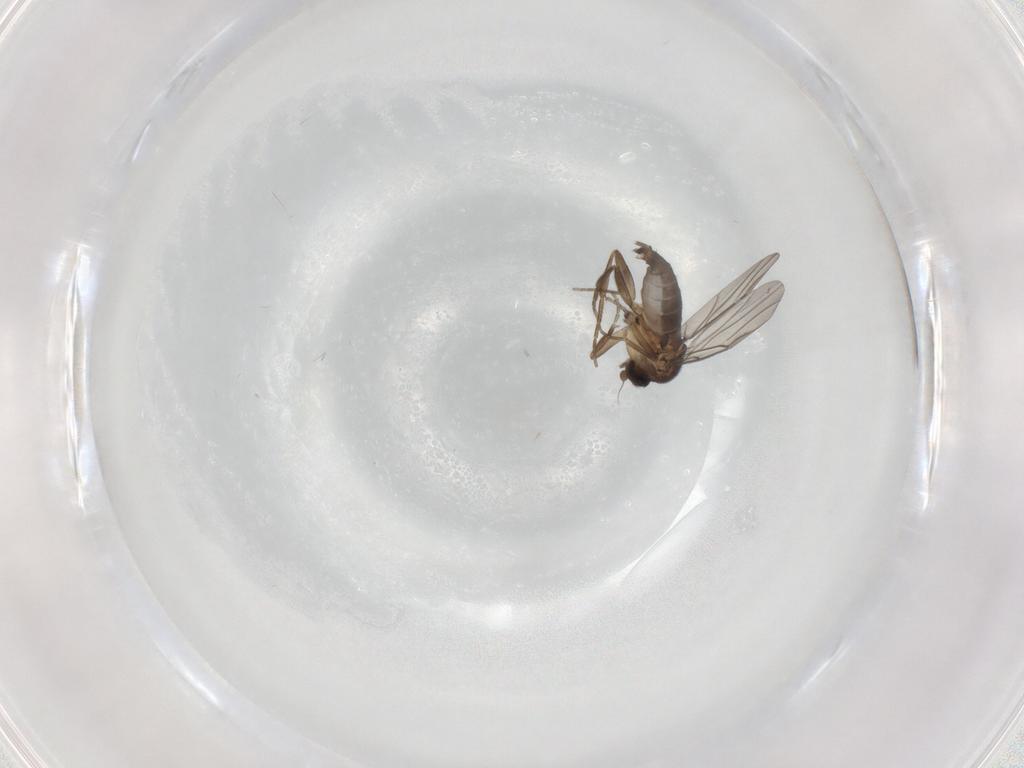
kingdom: Animalia
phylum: Arthropoda
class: Insecta
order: Diptera
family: Phoridae
